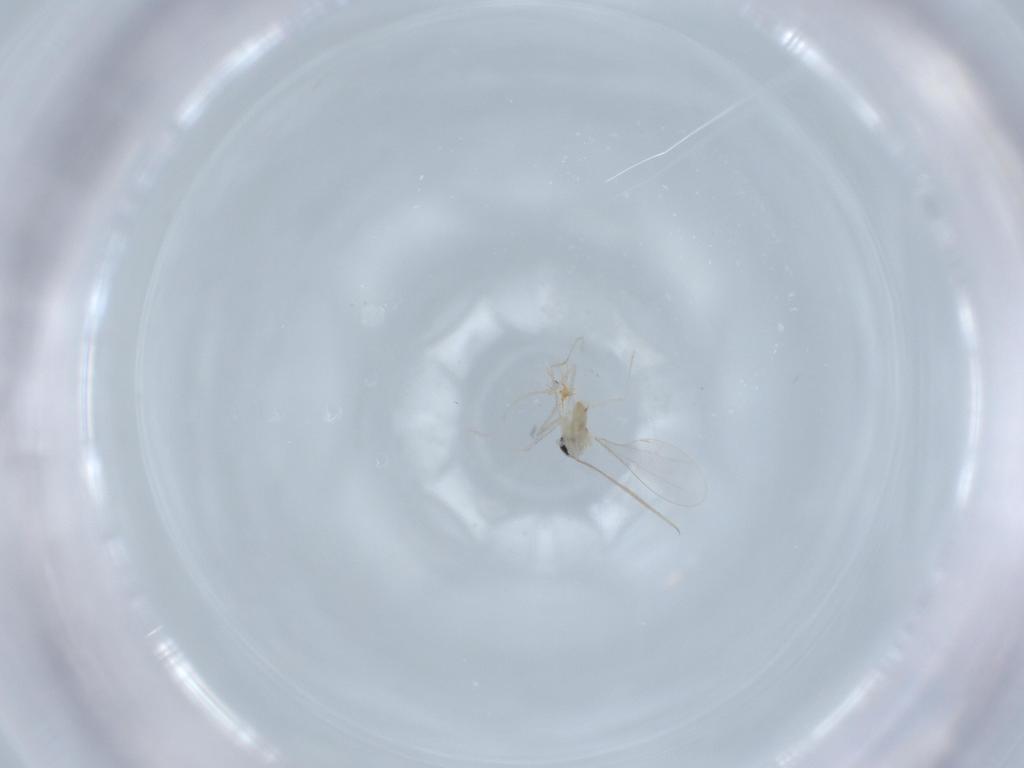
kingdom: Animalia
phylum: Arthropoda
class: Insecta
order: Diptera
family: Cecidomyiidae
